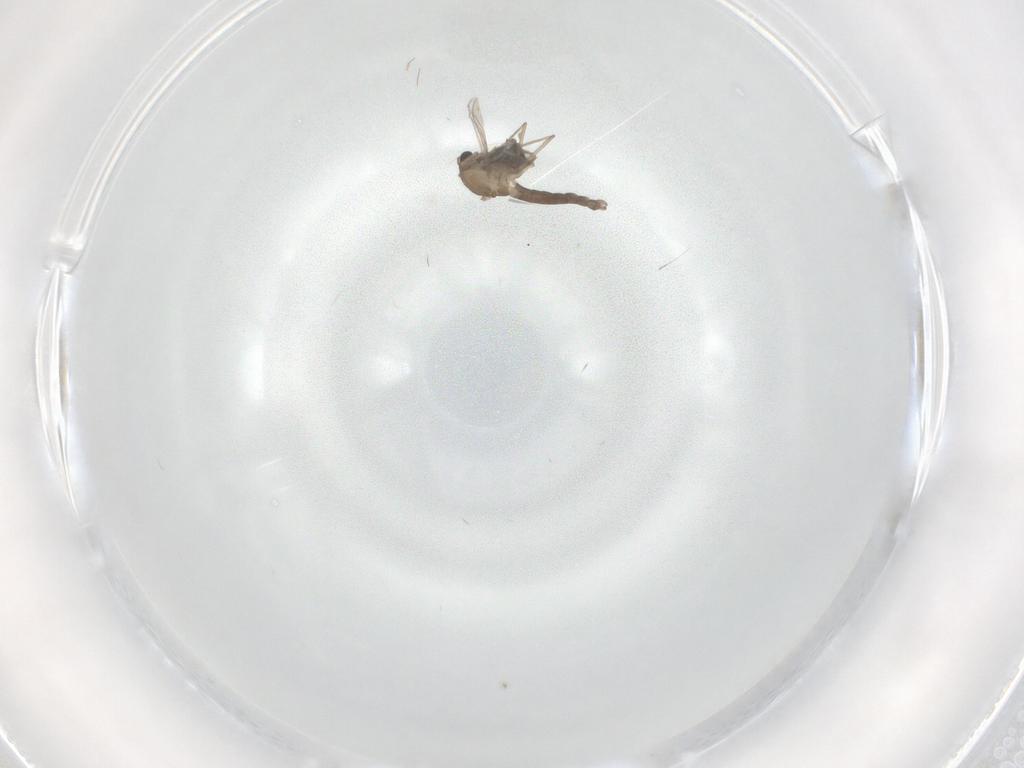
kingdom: Animalia
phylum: Arthropoda
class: Insecta
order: Diptera
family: Chironomidae
